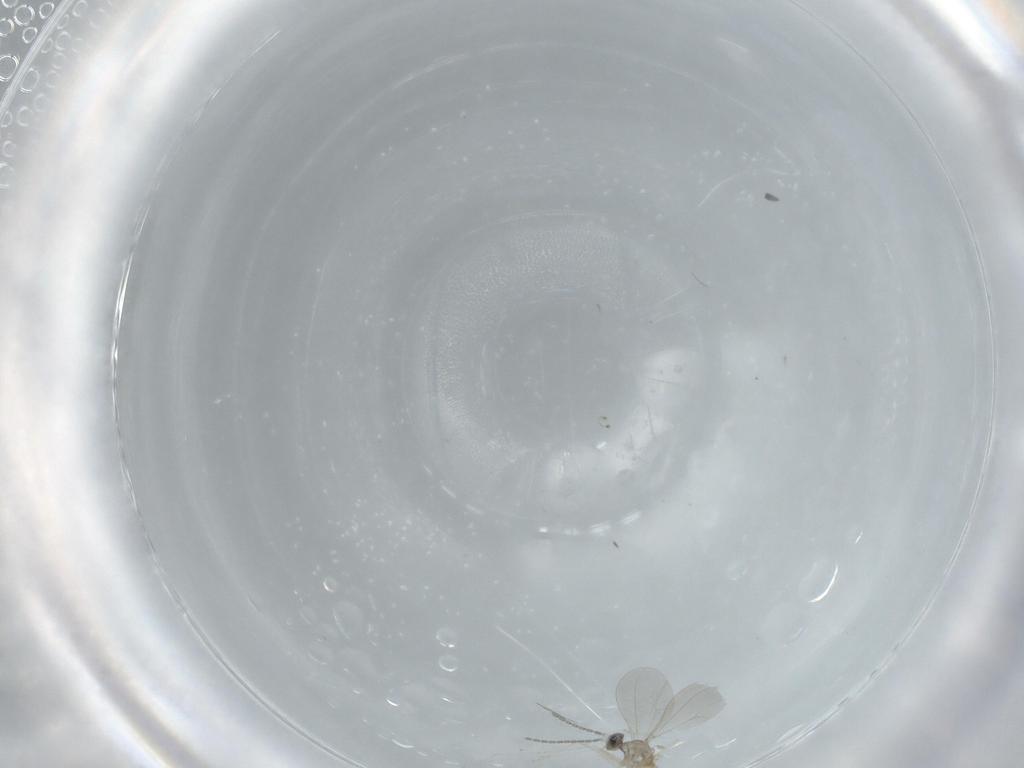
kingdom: Animalia
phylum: Arthropoda
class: Insecta
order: Diptera
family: Cecidomyiidae
